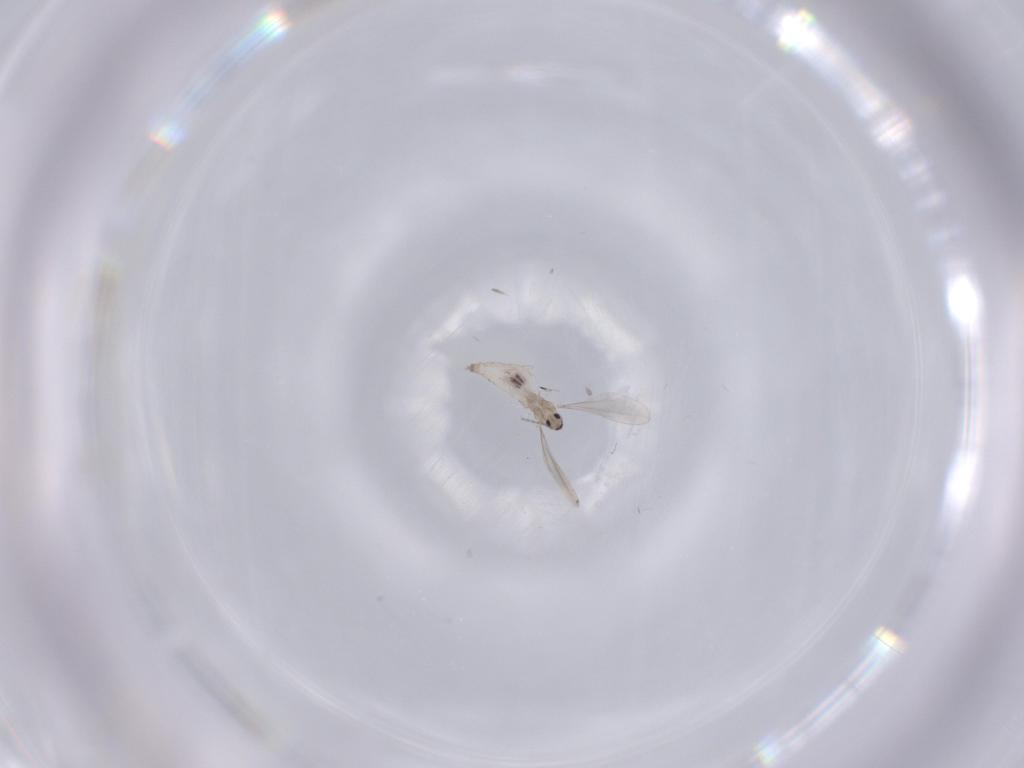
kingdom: Animalia
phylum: Arthropoda
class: Insecta
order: Diptera
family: Cecidomyiidae
